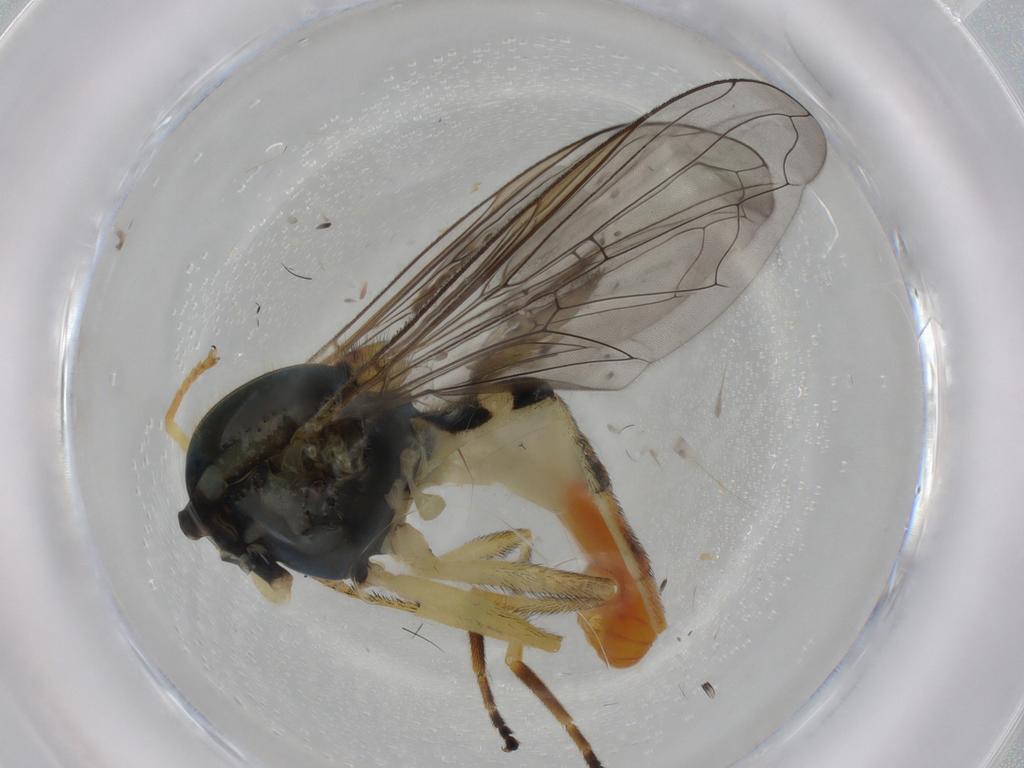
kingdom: Animalia
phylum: Arthropoda
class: Insecta
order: Diptera
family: Syrphidae
